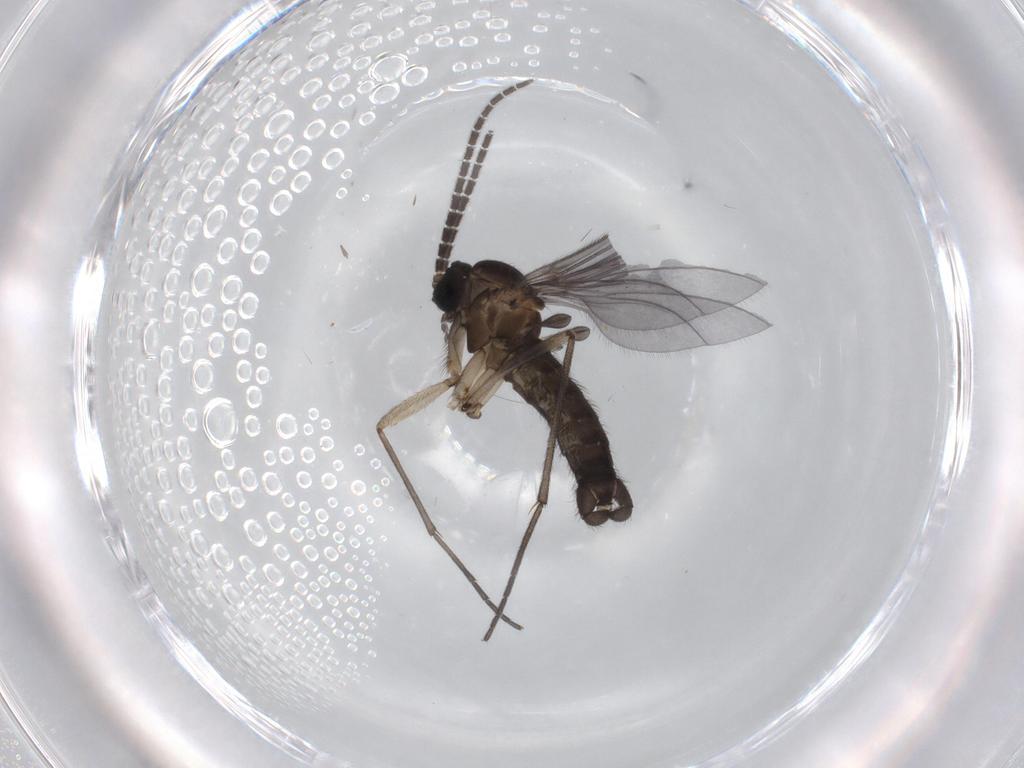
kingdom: Animalia
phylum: Arthropoda
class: Insecta
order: Diptera
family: Sciaridae
